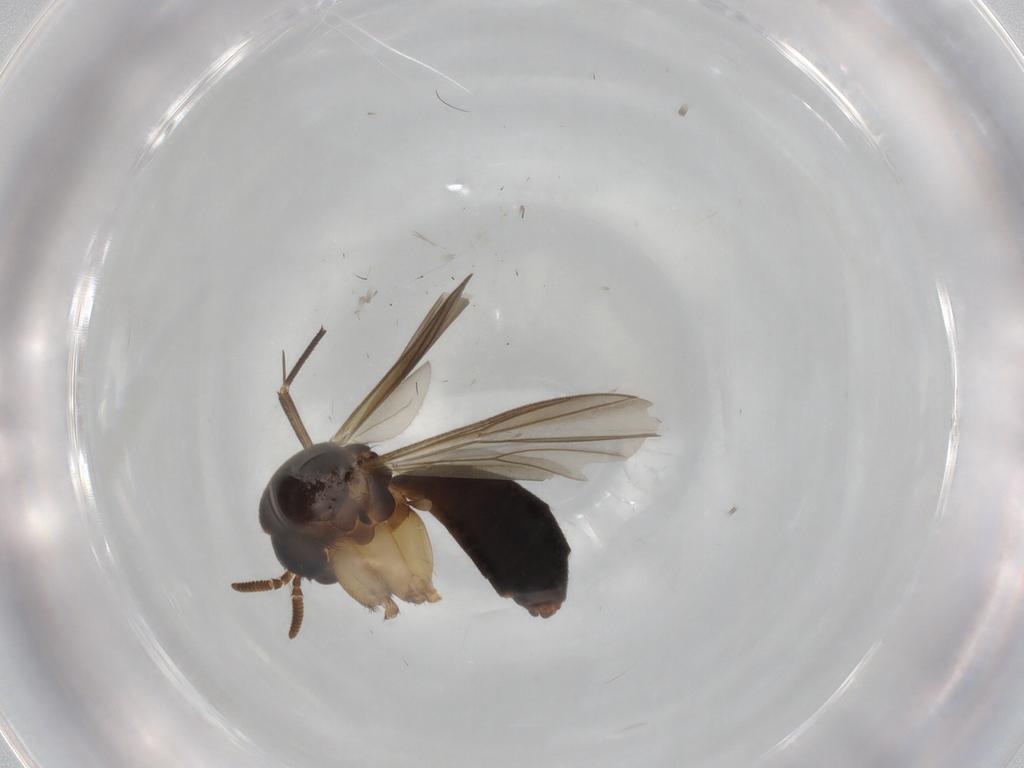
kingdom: Animalia
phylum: Arthropoda
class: Insecta
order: Diptera
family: Mycetophilidae
